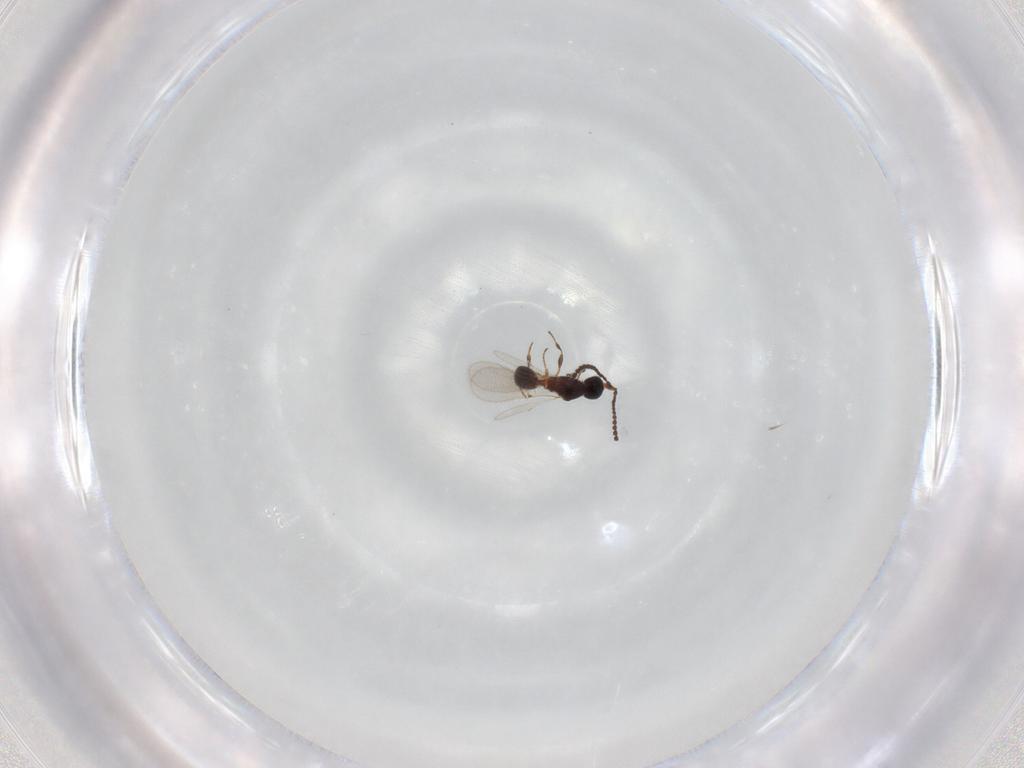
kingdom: Animalia
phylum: Arthropoda
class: Insecta
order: Hymenoptera
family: Diapriidae
